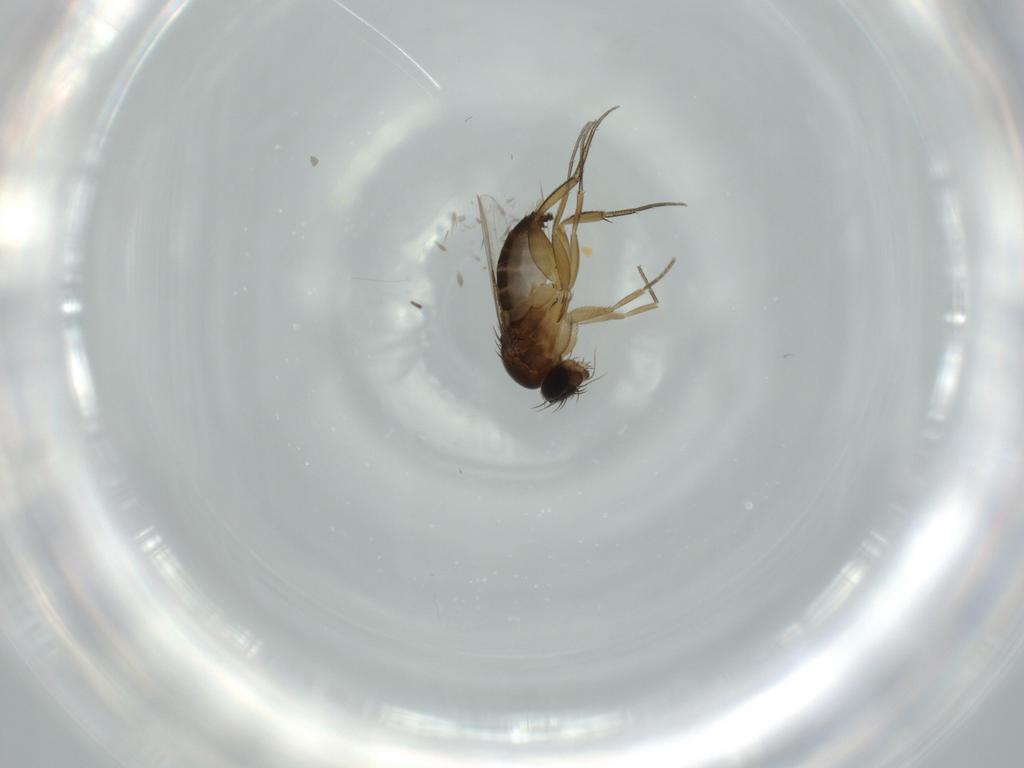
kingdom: Animalia
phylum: Arthropoda
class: Insecta
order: Diptera
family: Phoridae
